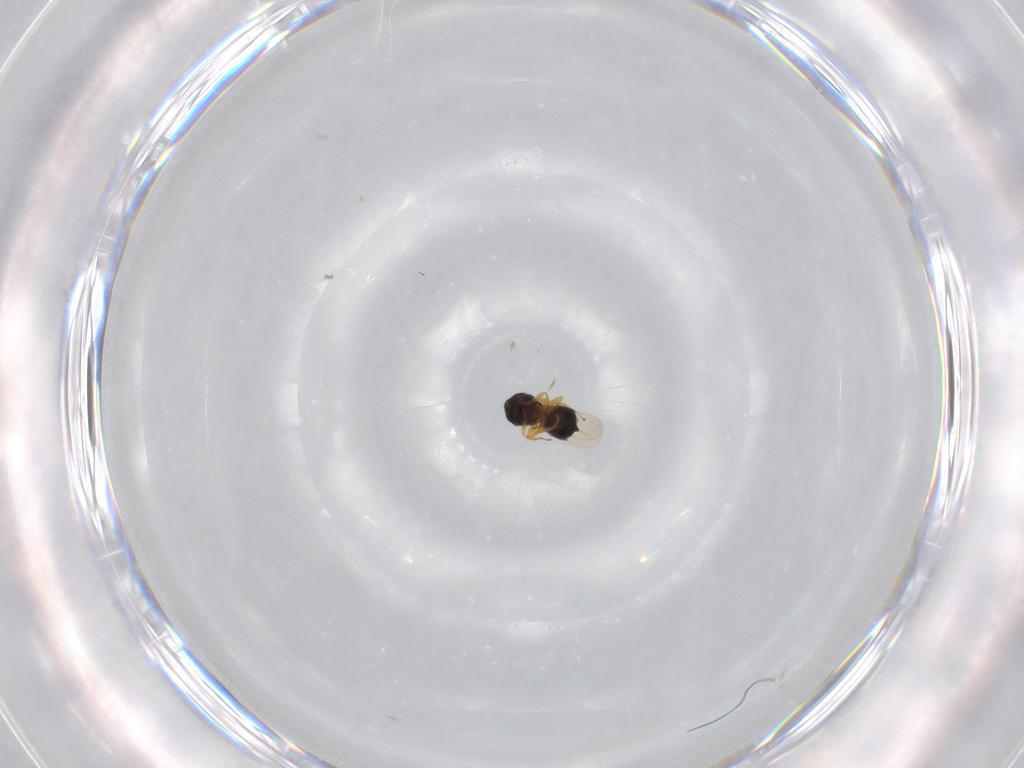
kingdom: Animalia
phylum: Arthropoda
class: Insecta
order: Hymenoptera
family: Scelionidae
